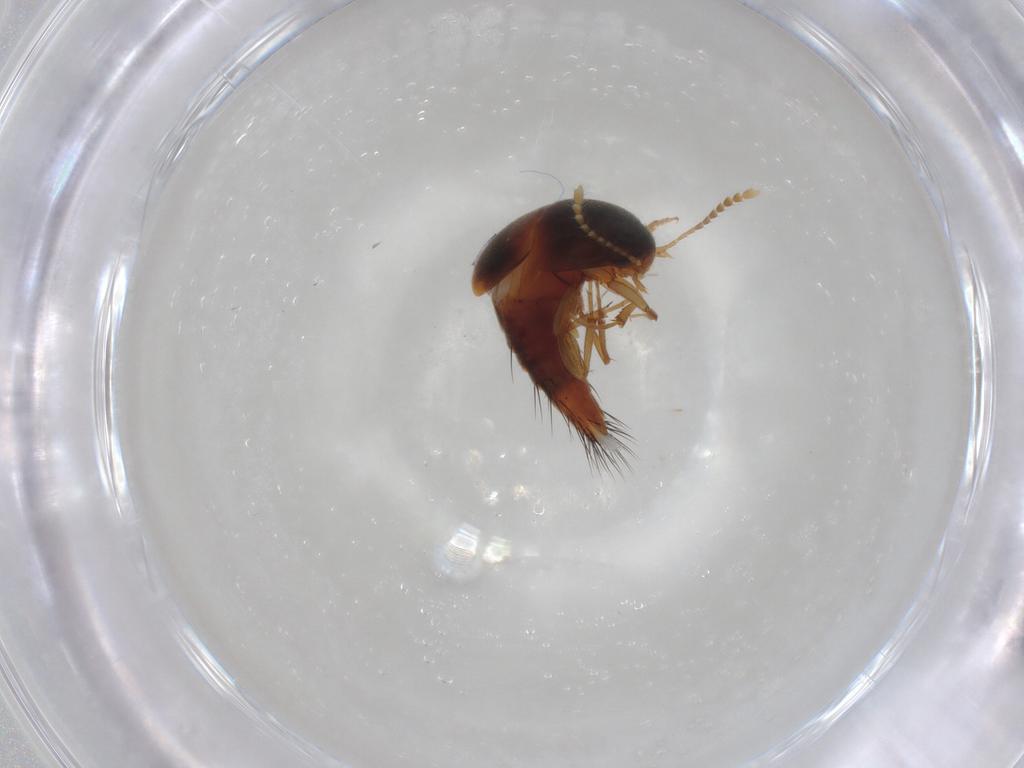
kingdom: Animalia
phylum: Arthropoda
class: Insecta
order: Coleoptera
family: Staphylinidae
